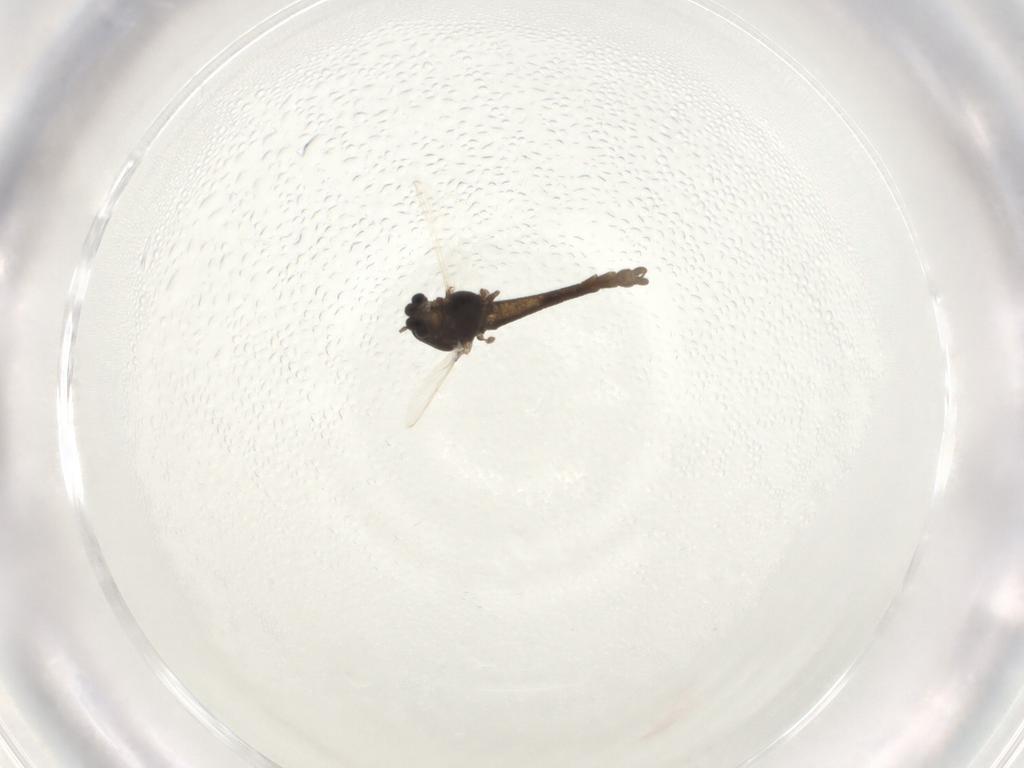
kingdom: Animalia
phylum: Arthropoda
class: Insecta
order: Diptera
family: Chironomidae
